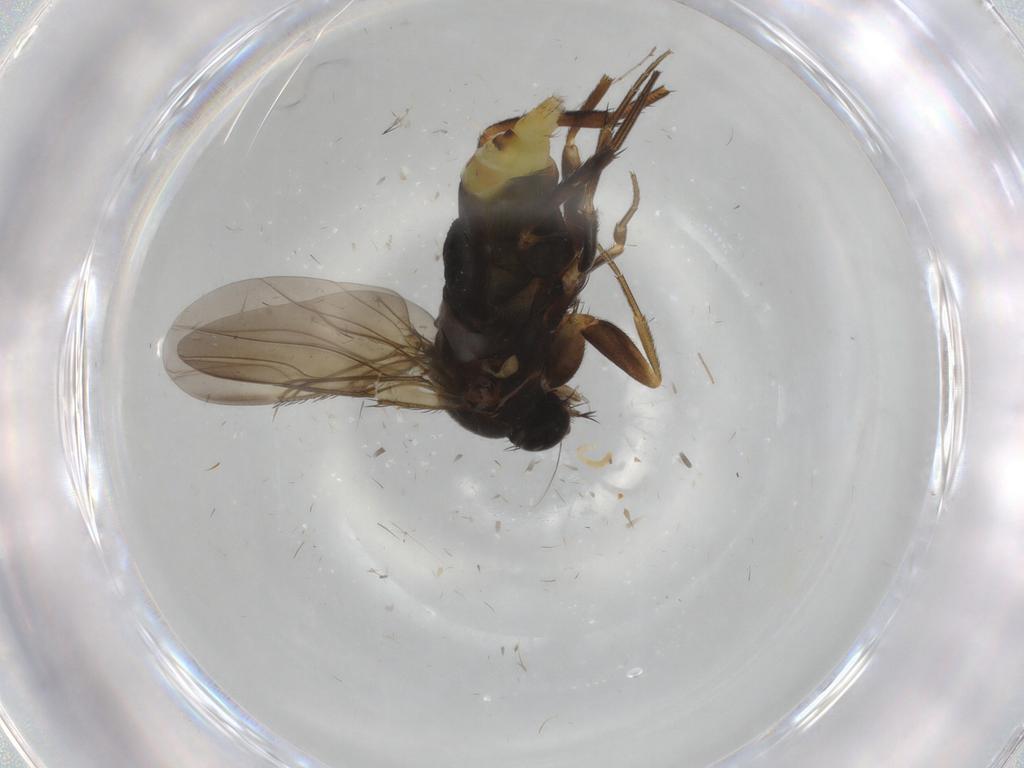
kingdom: Animalia
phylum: Arthropoda
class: Insecta
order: Diptera
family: Phoridae
